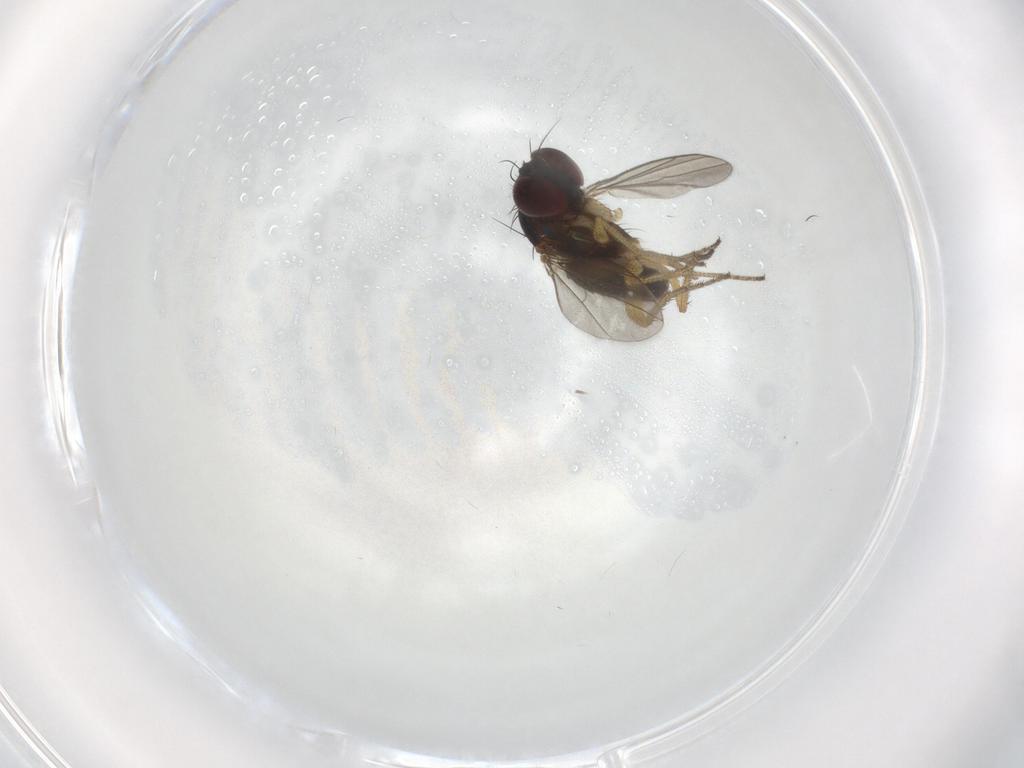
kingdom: Animalia
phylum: Arthropoda
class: Insecta
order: Diptera
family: Dolichopodidae
